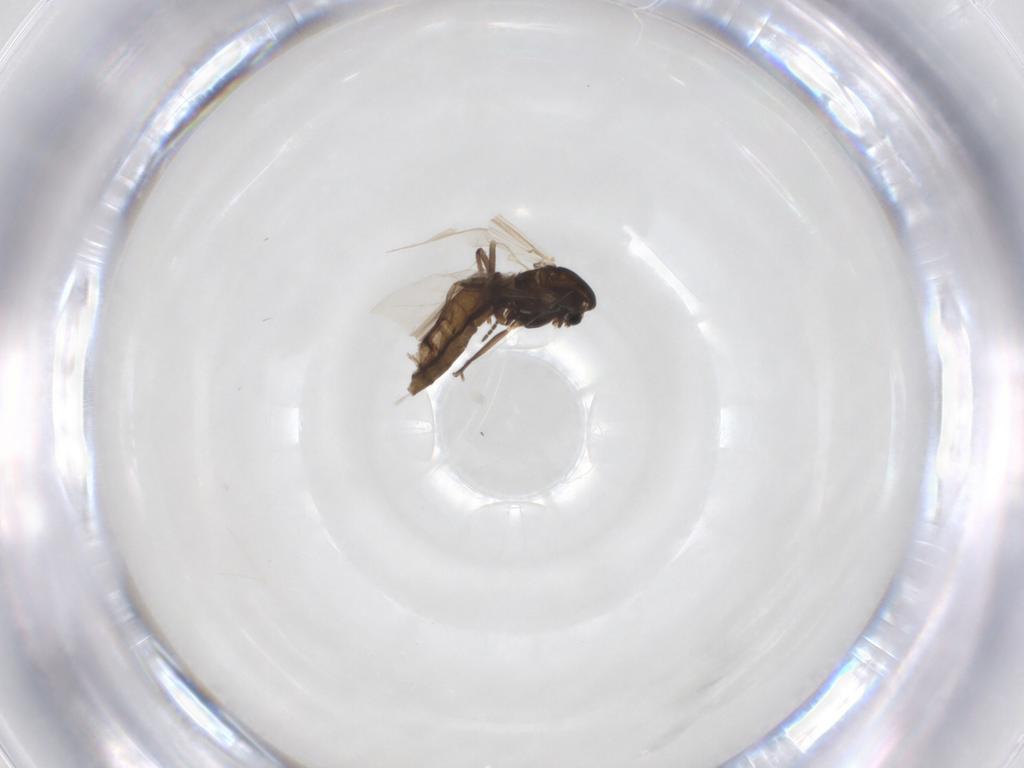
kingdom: Animalia
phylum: Arthropoda
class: Insecta
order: Diptera
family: Chironomidae
